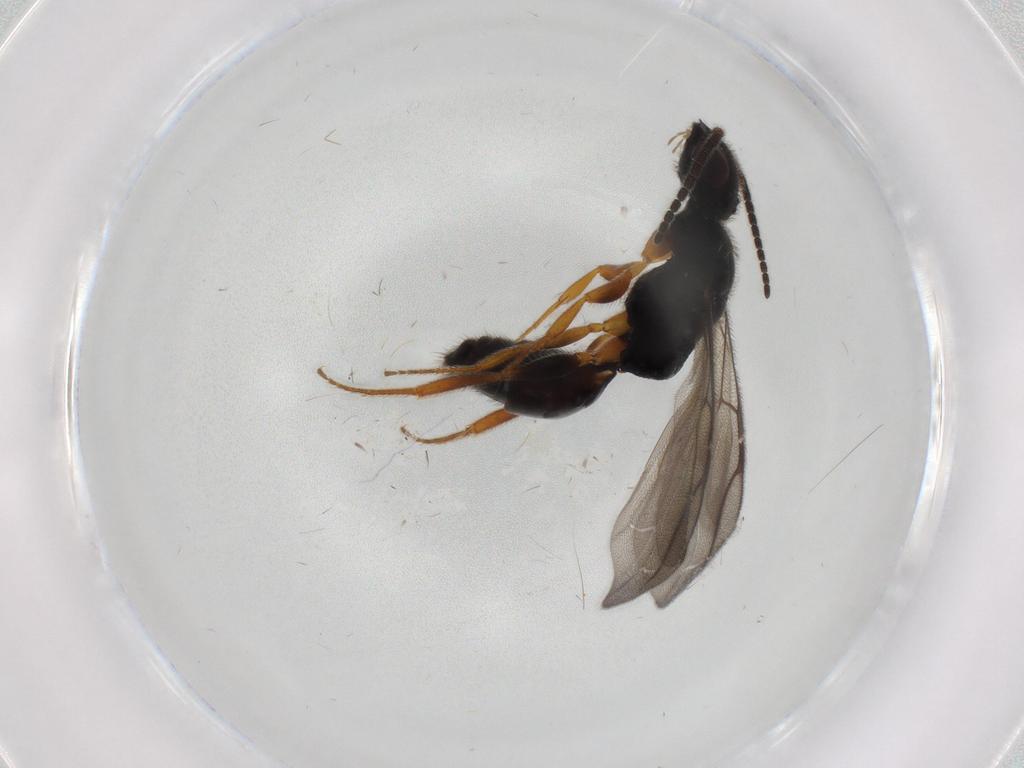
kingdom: Animalia
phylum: Arthropoda
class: Insecta
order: Hymenoptera
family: Bethylidae
